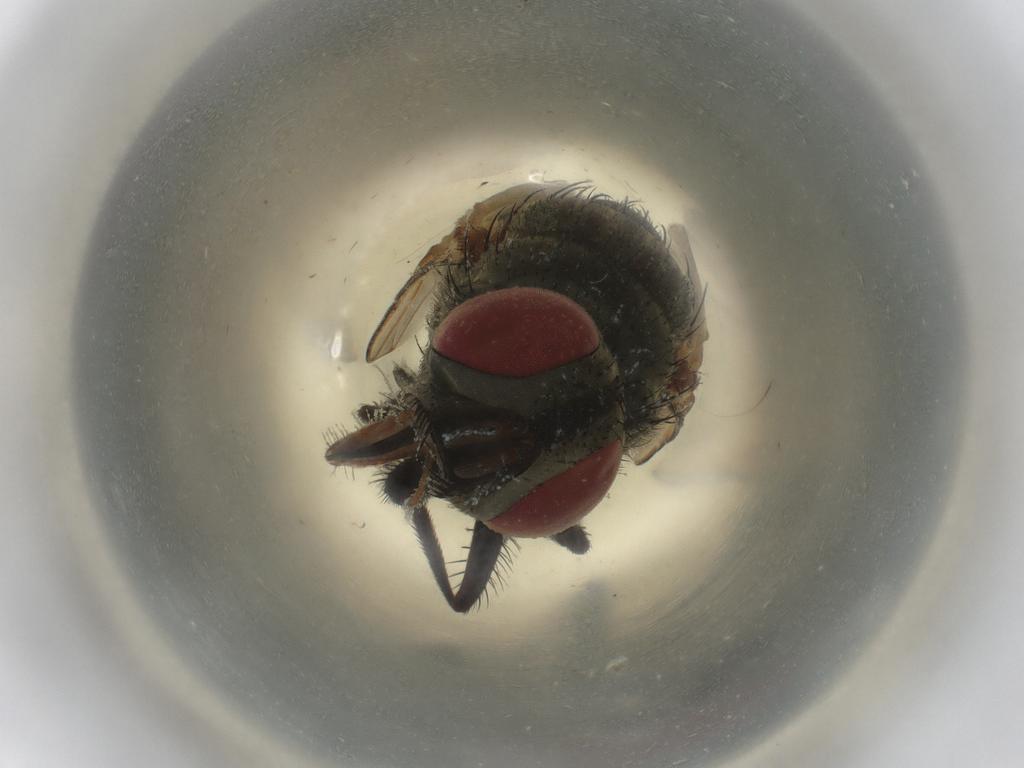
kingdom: Animalia
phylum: Arthropoda
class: Insecta
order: Diptera
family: Muscidae
